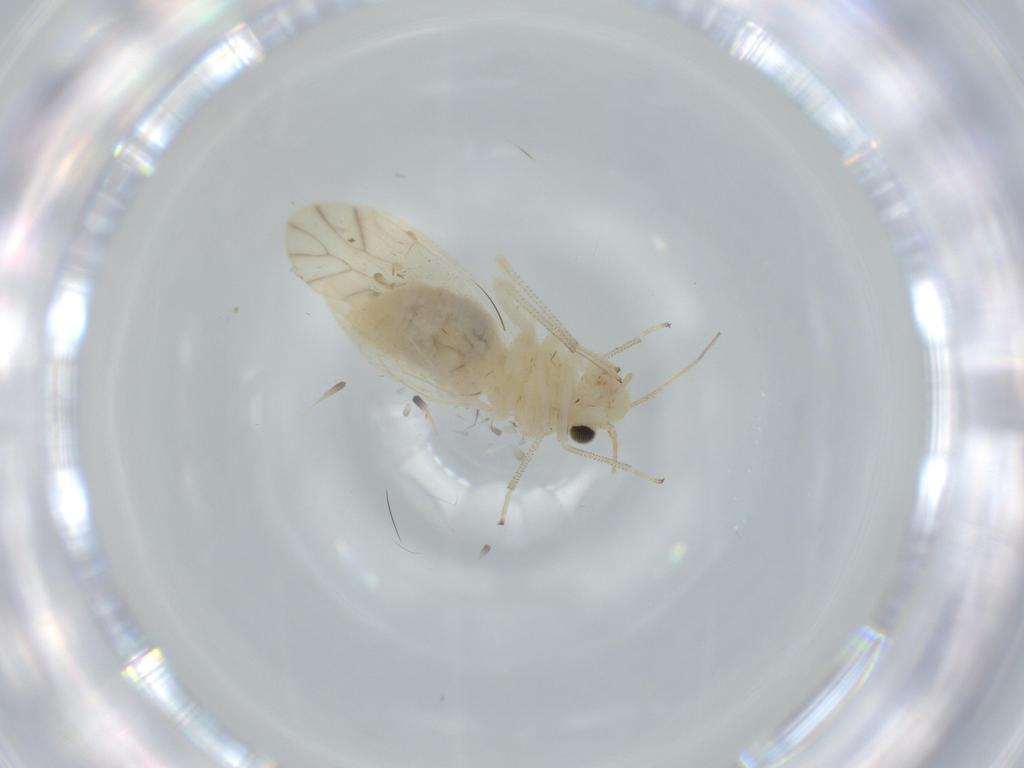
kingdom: Animalia
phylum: Arthropoda
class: Insecta
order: Psocodea
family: Caeciliusidae
